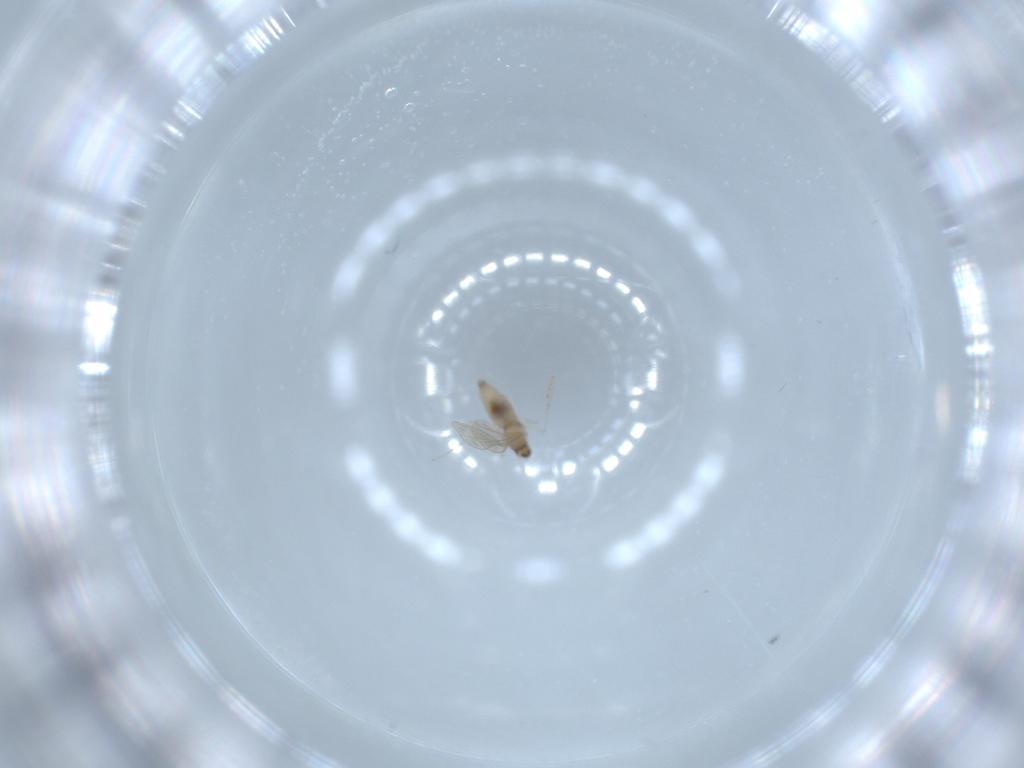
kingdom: Animalia
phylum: Arthropoda
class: Insecta
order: Diptera
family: Cecidomyiidae
